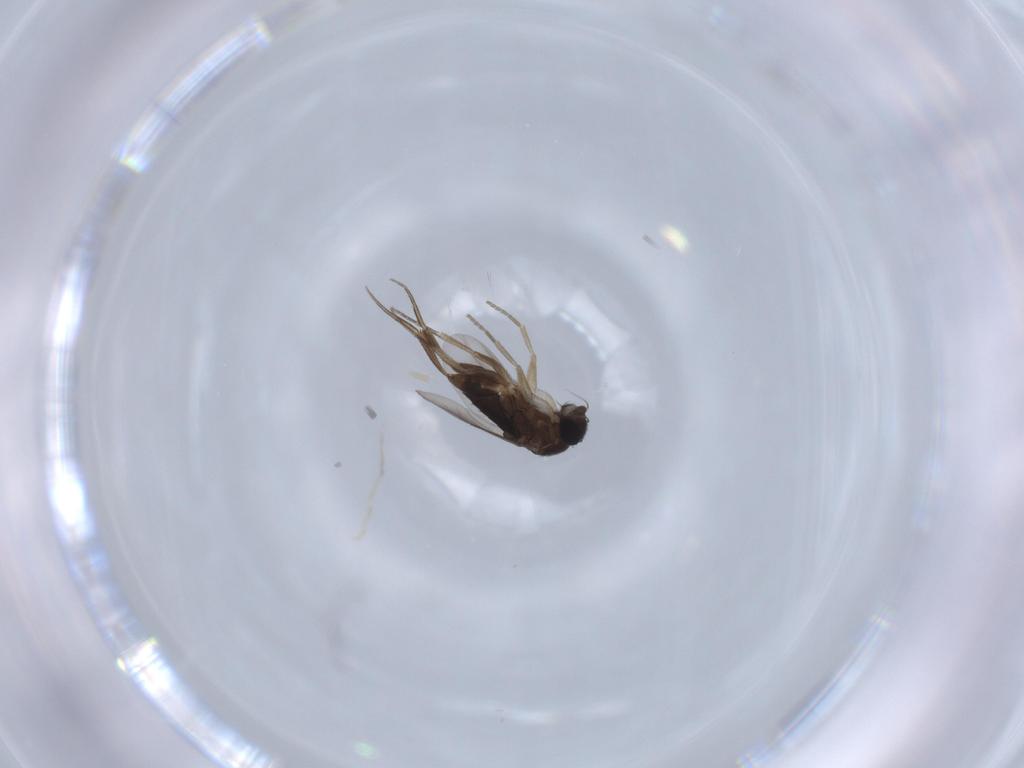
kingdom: Animalia
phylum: Arthropoda
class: Insecta
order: Diptera
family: Phoridae
